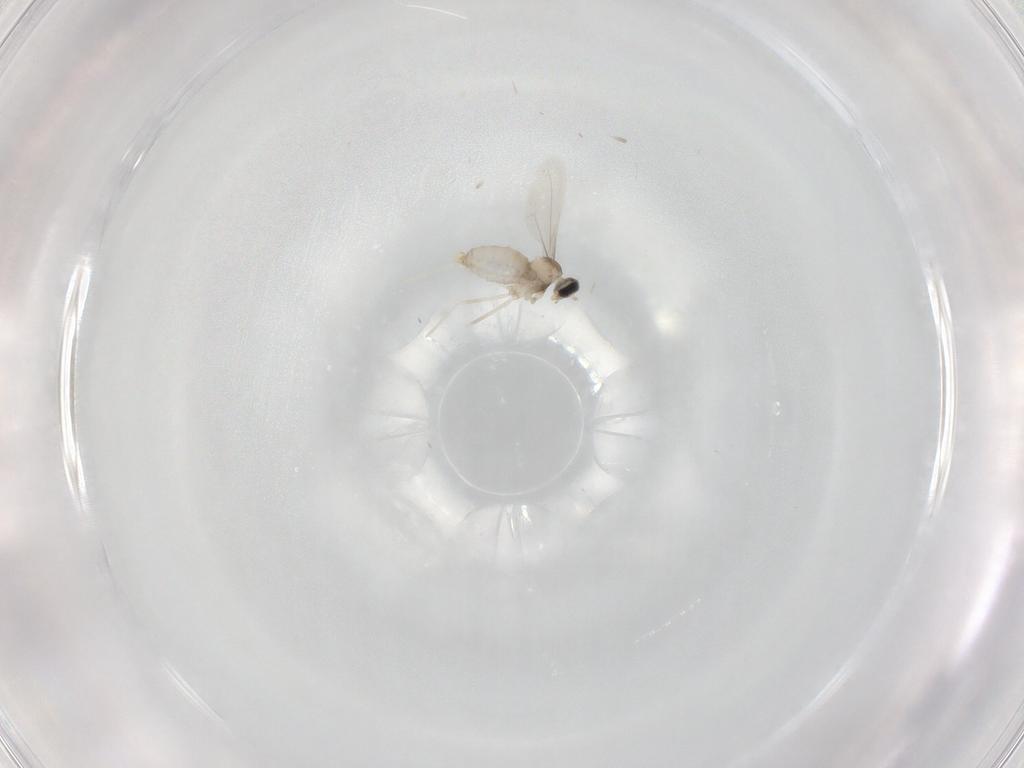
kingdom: Animalia
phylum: Arthropoda
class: Insecta
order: Diptera
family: Cecidomyiidae
